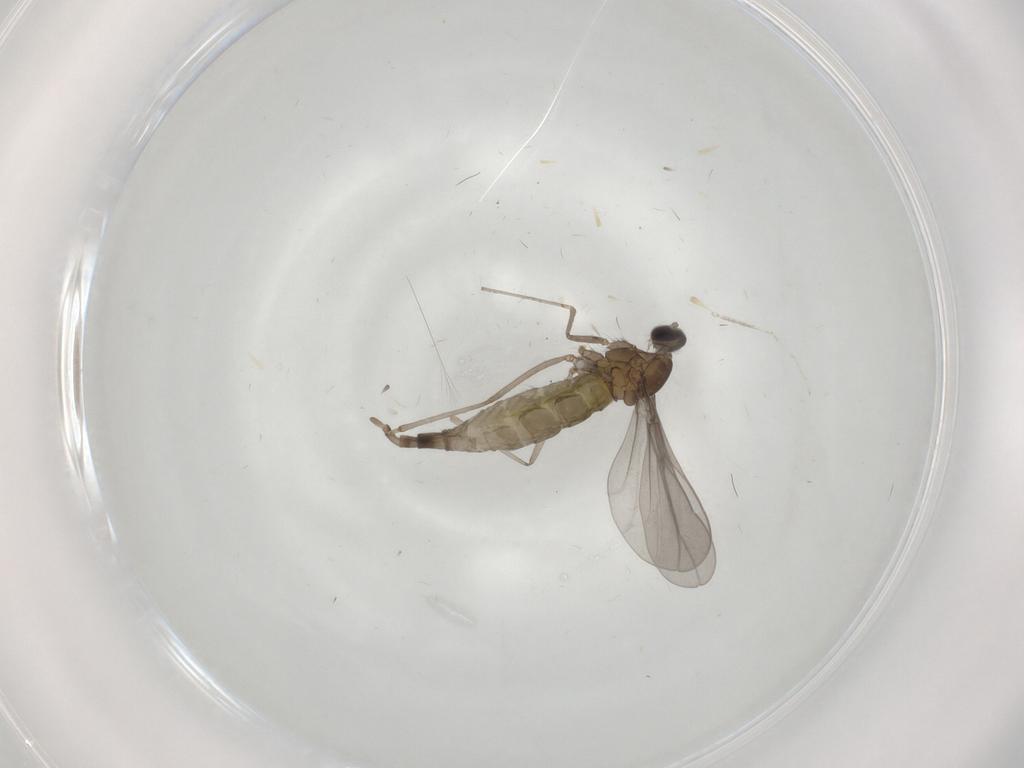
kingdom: Animalia
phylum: Arthropoda
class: Insecta
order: Diptera
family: Cecidomyiidae
